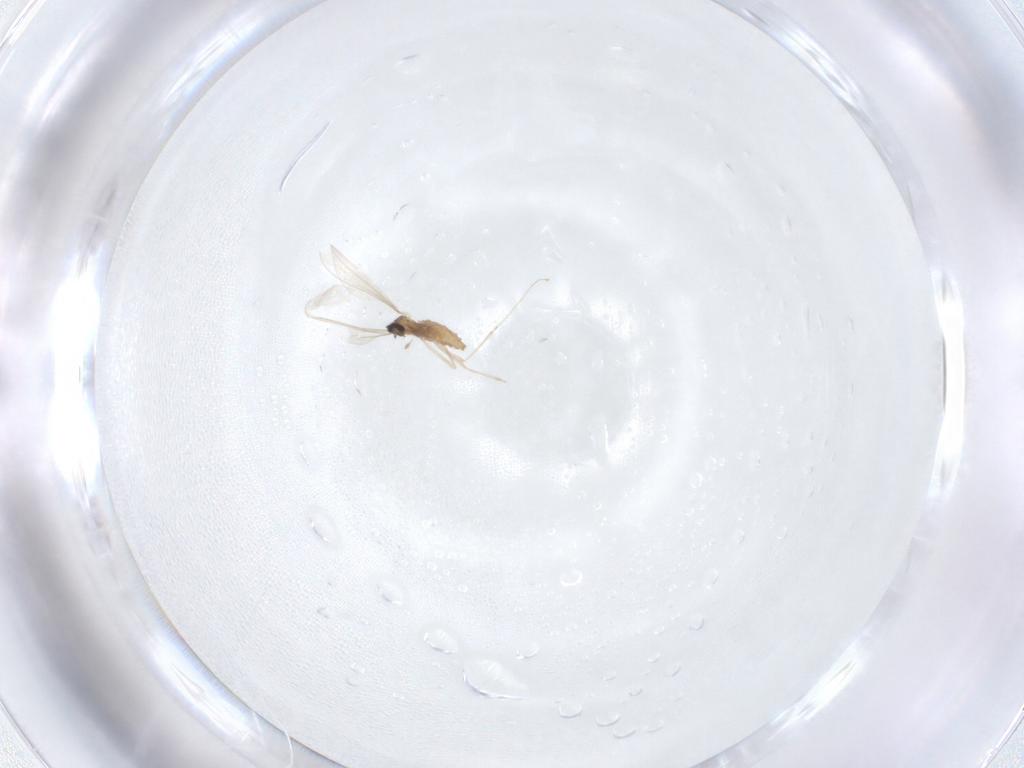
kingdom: Animalia
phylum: Arthropoda
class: Insecta
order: Diptera
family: Cecidomyiidae
